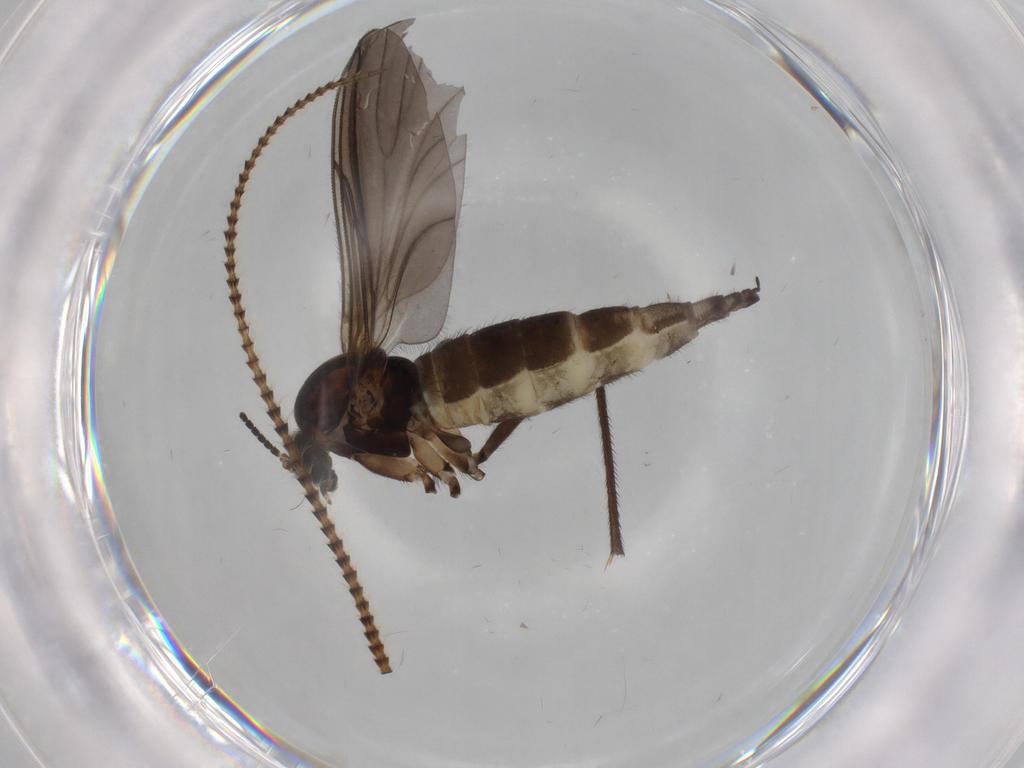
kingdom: Animalia
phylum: Arthropoda
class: Insecta
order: Diptera
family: Sciaridae
